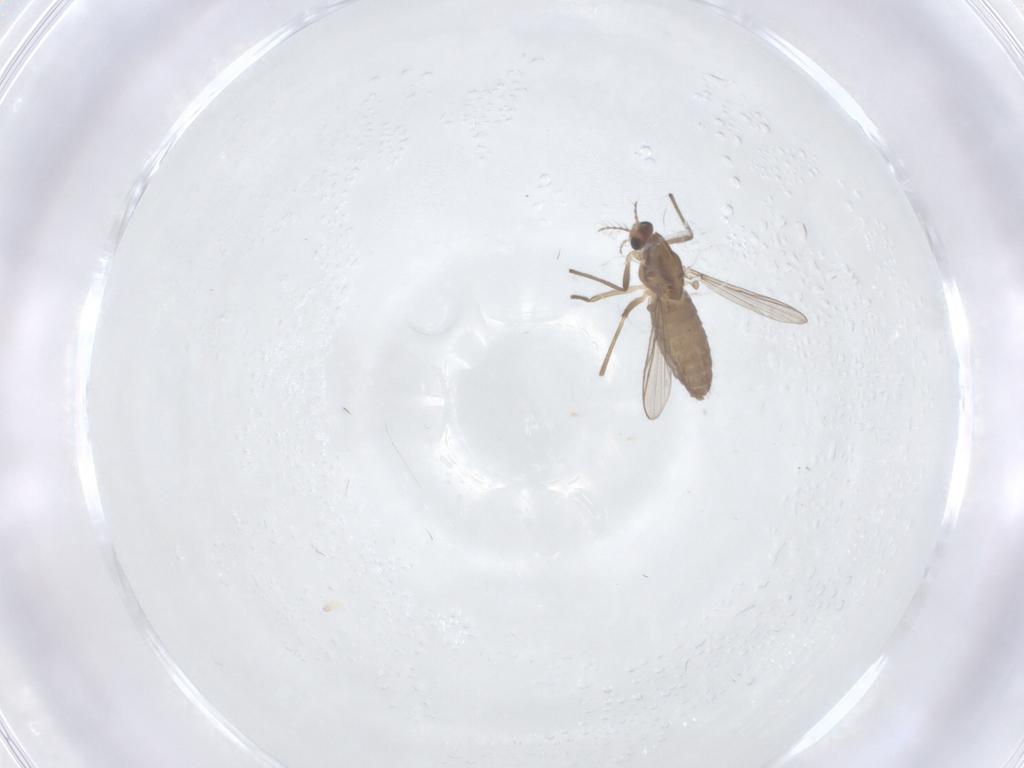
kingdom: Animalia
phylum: Arthropoda
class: Insecta
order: Diptera
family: Chironomidae
